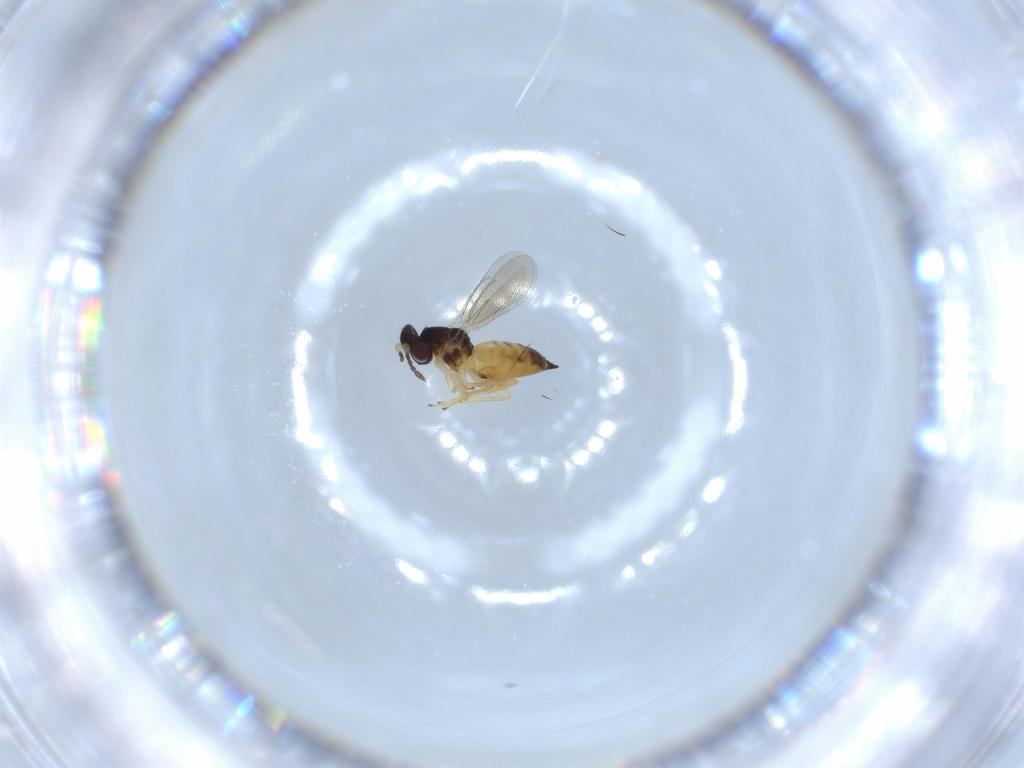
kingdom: Animalia
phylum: Arthropoda
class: Insecta
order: Hymenoptera
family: Eulophidae
